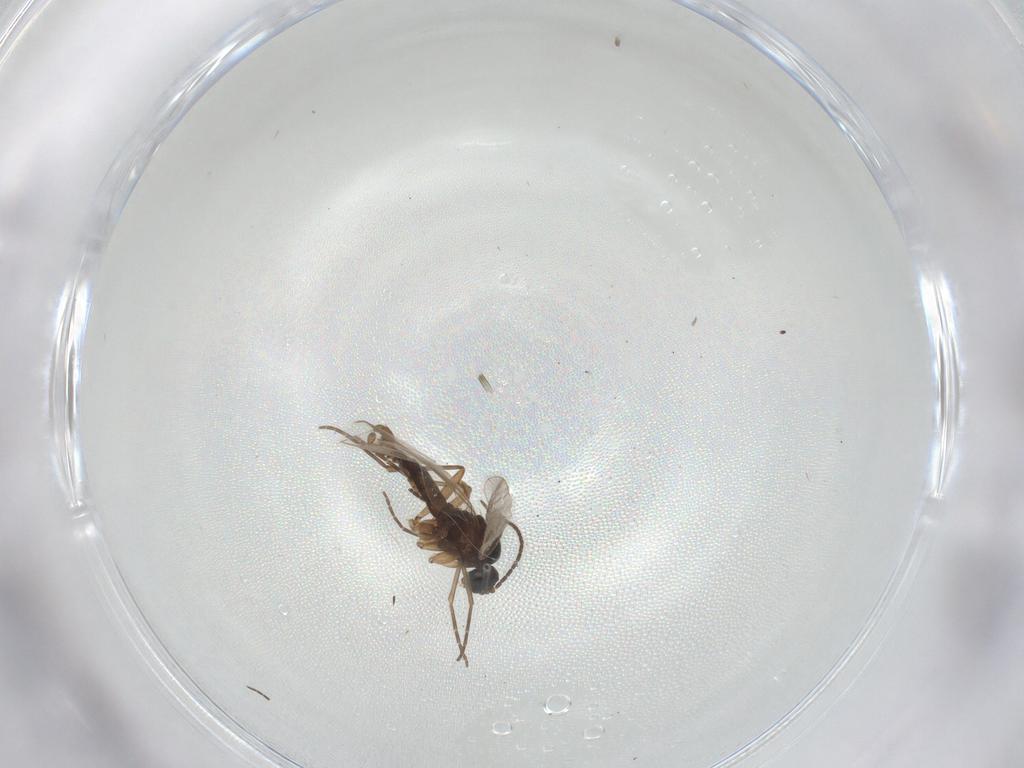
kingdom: Animalia
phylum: Arthropoda
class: Insecta
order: Diptera
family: Sciaridae
